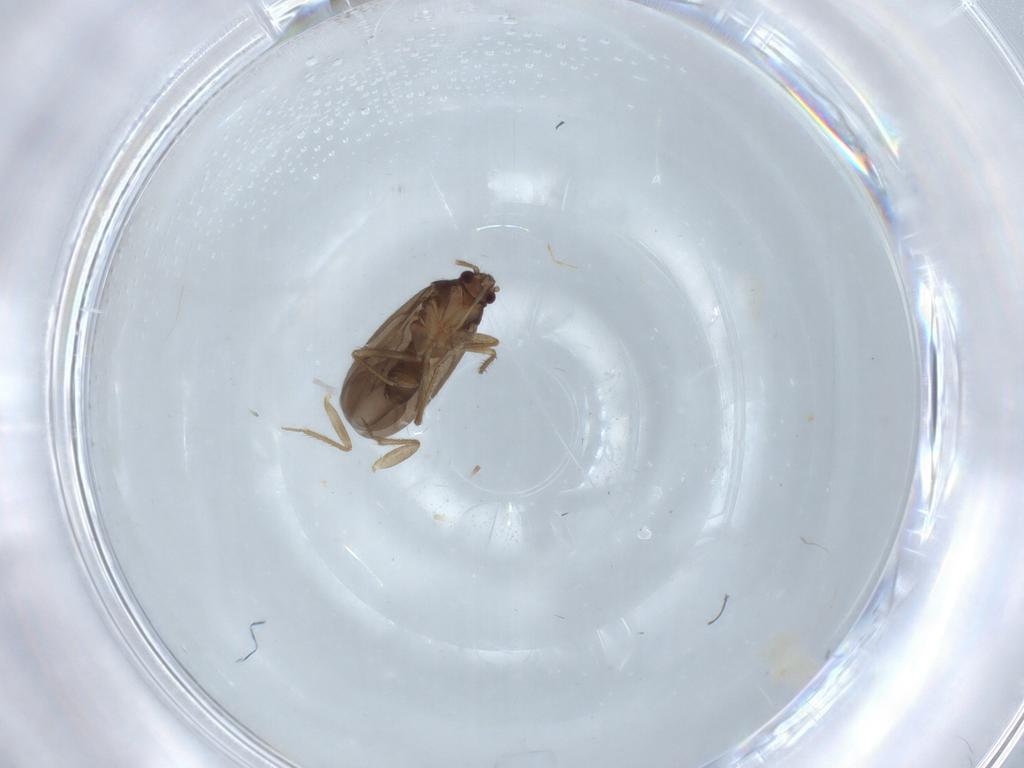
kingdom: Animalia
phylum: Arthropoda
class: Insecta
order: Hemiptera
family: Ceratocombidae
